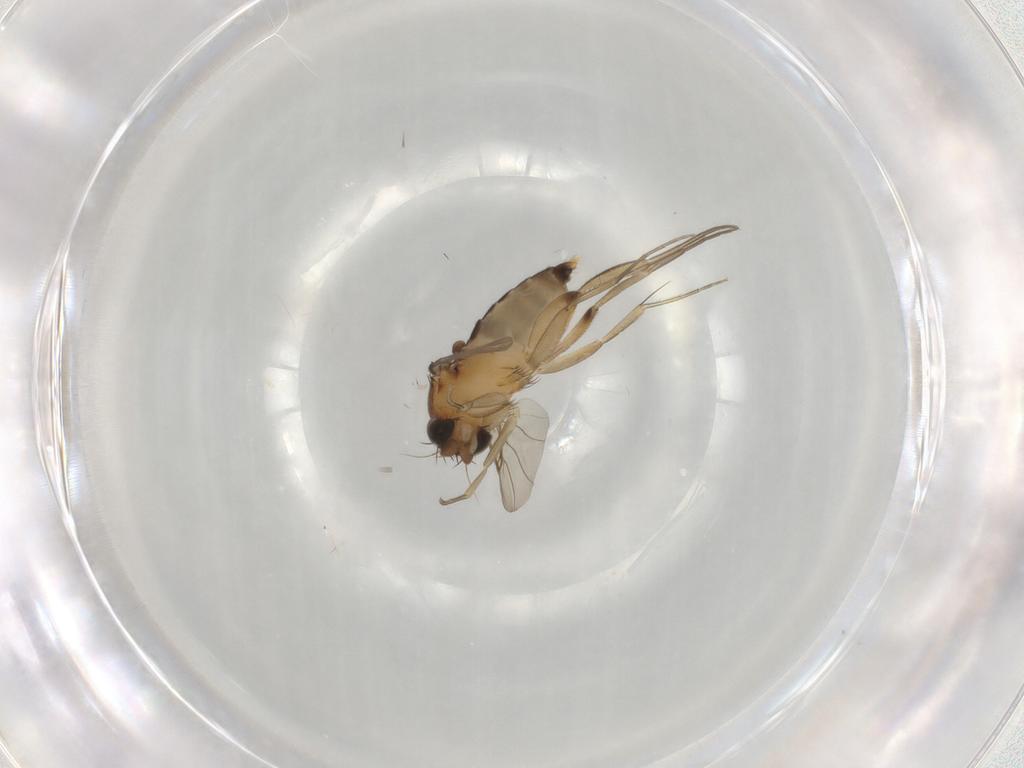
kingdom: Animalia
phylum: Arthropoda
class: Insecta
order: Diptera
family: Phoridae
